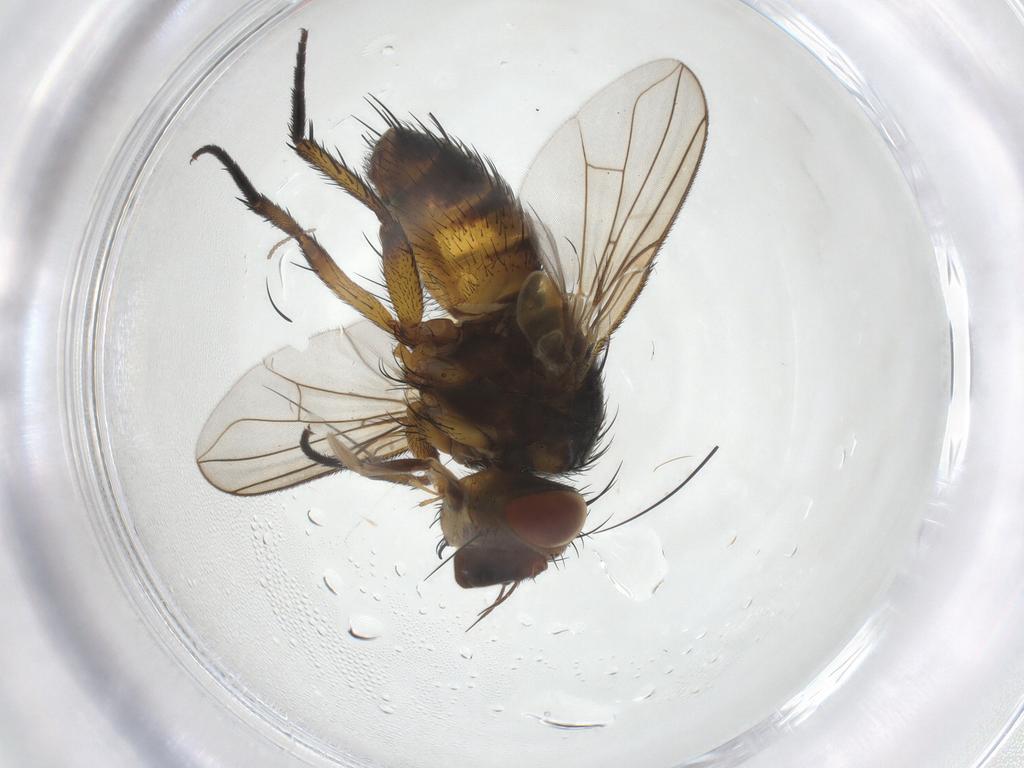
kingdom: Animalia
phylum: Arthropoda
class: Insecta
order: Diptera
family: Tachinidae
